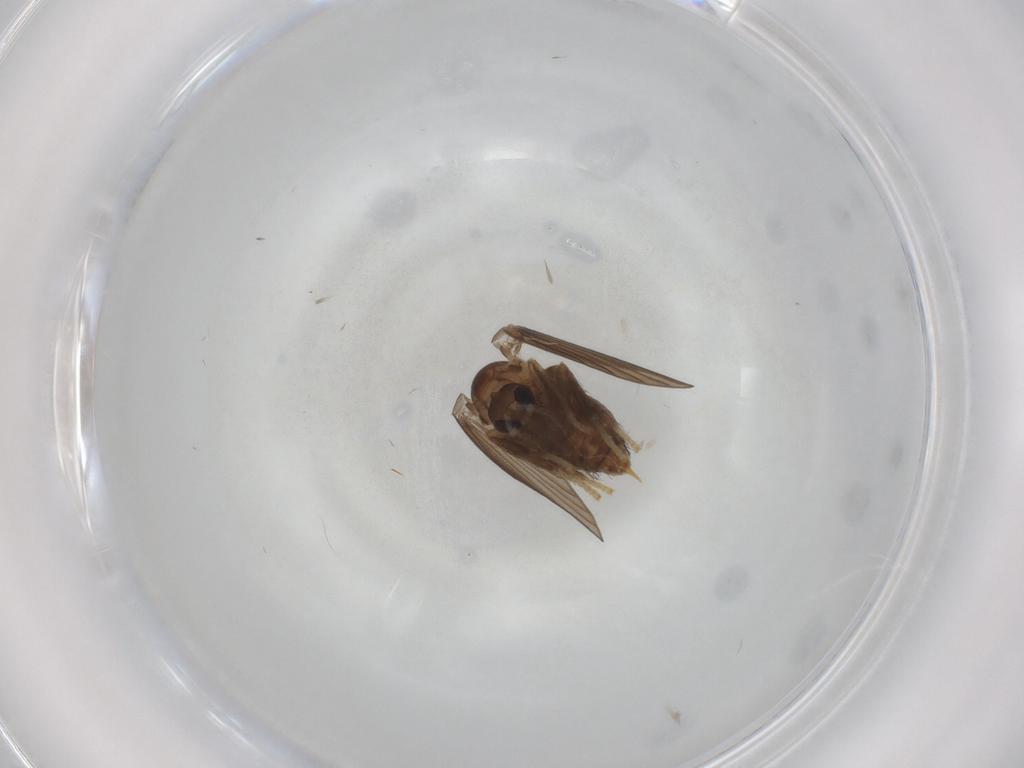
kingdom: Animalia
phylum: Arthropoda
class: Insecta
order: Diptera
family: Psychodidae
